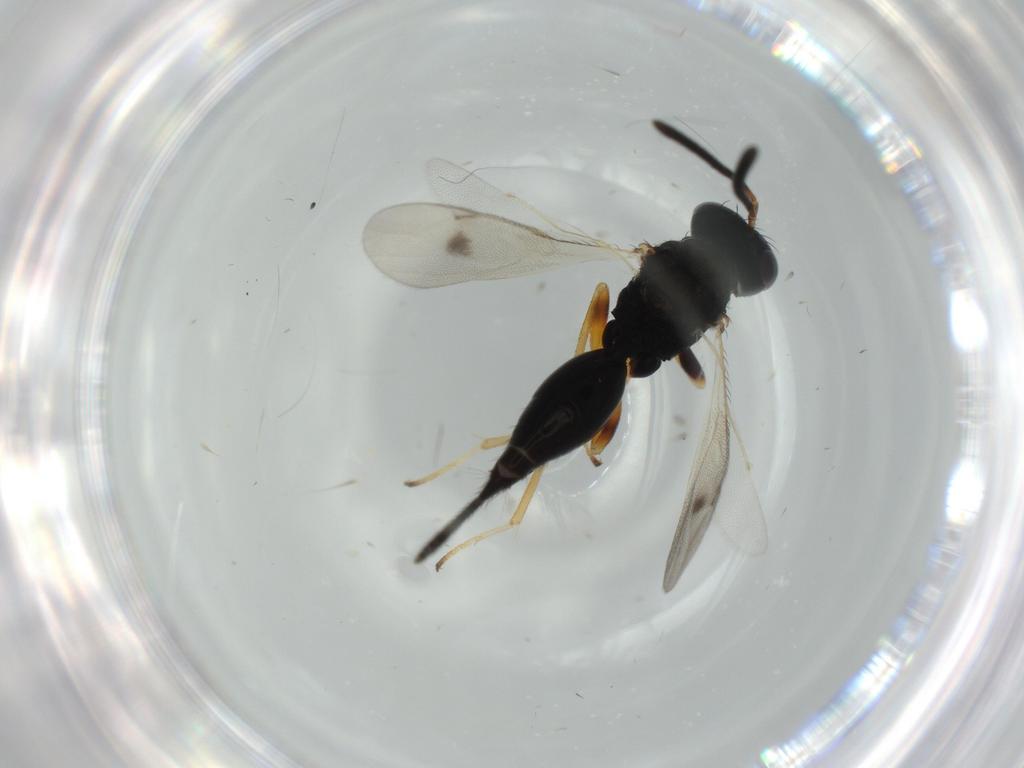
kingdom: Animalia
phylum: Arthropoda
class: Insecta
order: Hymenoptera
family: Pteromalidae
